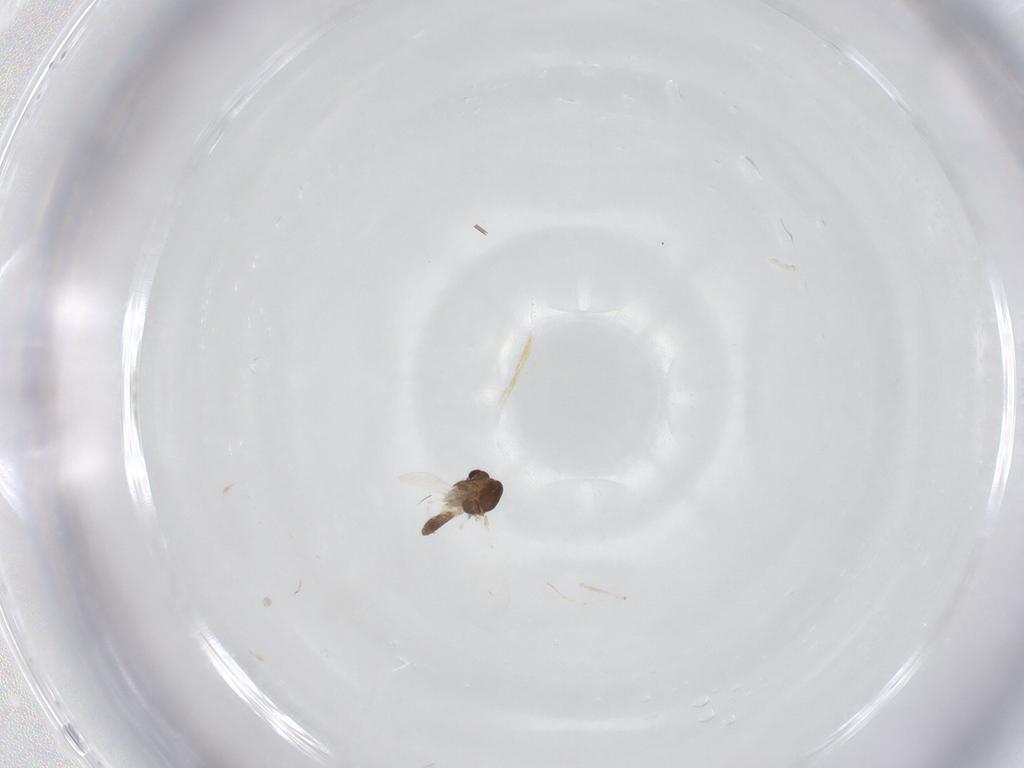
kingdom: Animalia
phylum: Arthropoda
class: Insecta
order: Diptera
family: Chironomidae
